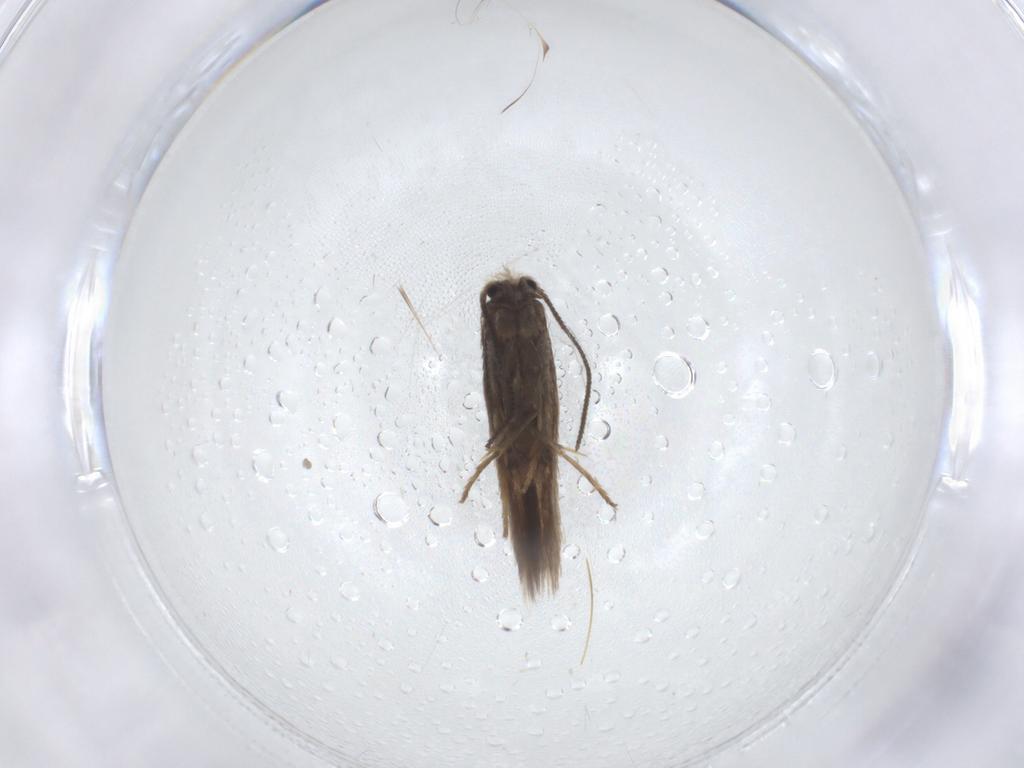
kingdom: Animalia
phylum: Arthropoda
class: Insecta
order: Lepidoptera
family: Nepticulidae
